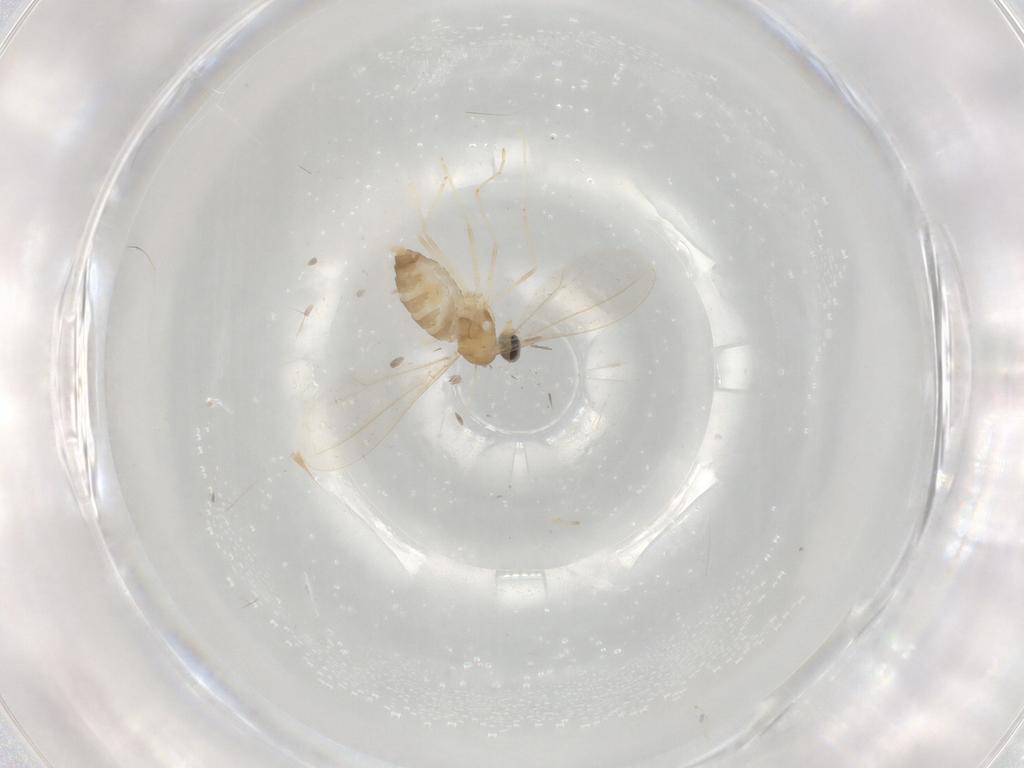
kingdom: Animalia
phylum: Arthropoda
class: Insecta
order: Diptera
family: Cecidomyiidae
